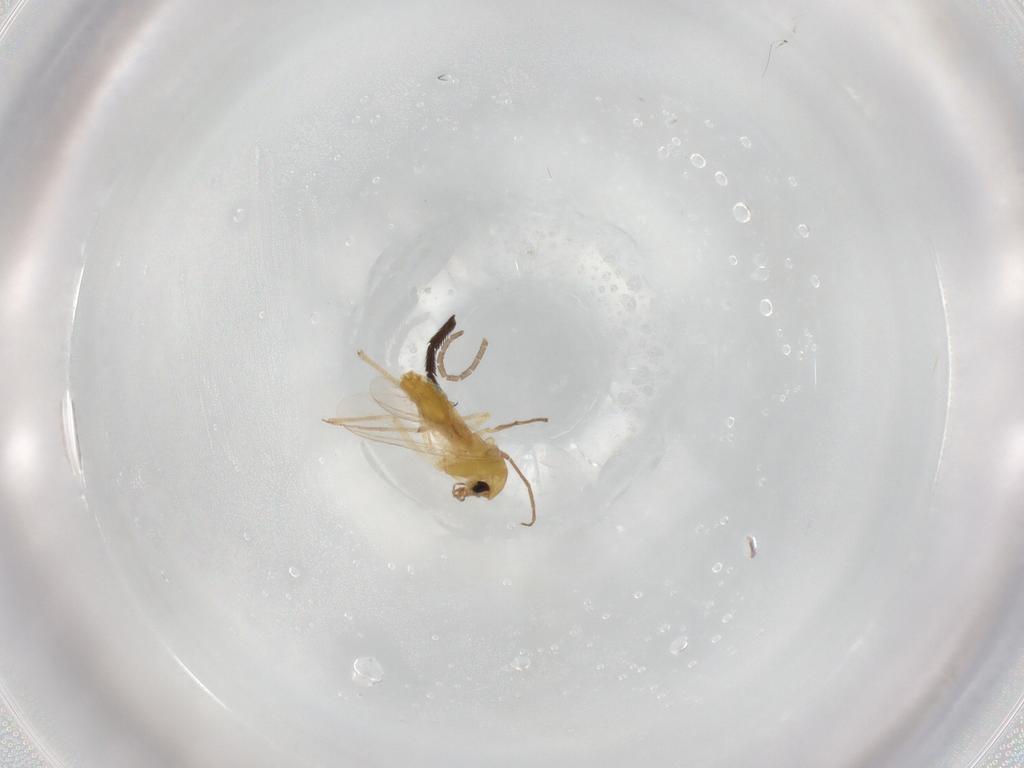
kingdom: Animalia
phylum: Arthropoda
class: Insecta
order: Diptera
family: Chironomidae
